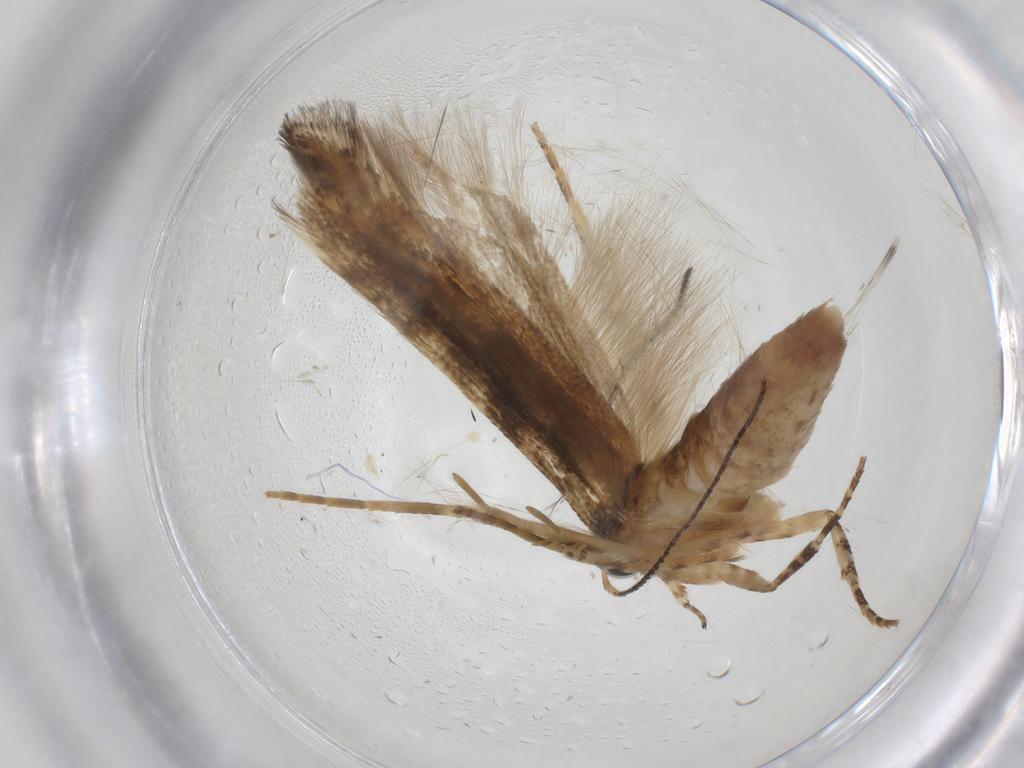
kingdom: Animalia
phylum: Arthropoda
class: Insecta
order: Lepidoptera
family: Gelechiidae
